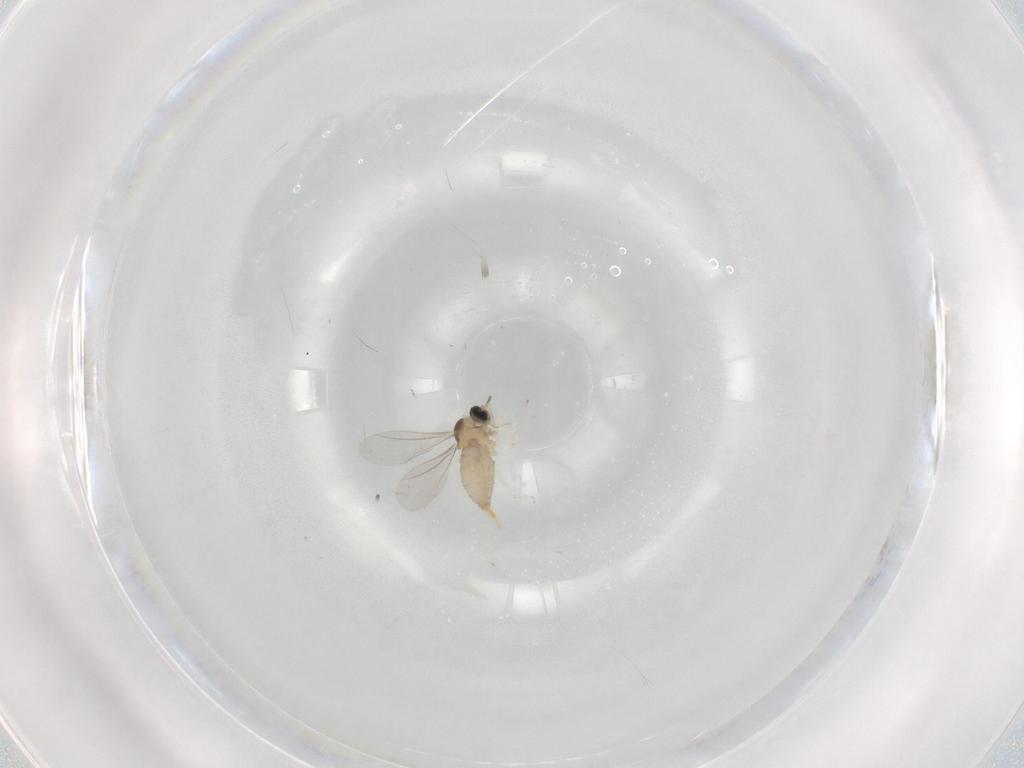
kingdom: Animalia
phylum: Arthropoda
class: Insecta
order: Diptera
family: Cecidomyiidae
